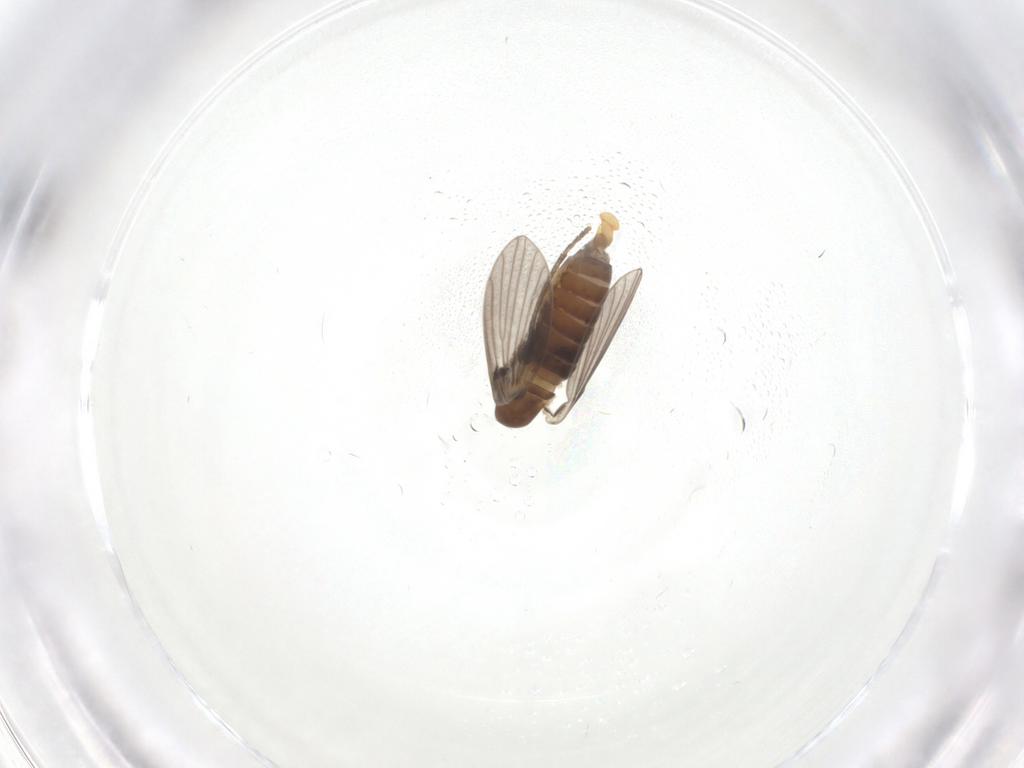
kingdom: Animalia
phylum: Arthropoda
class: Insecta
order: Diptera
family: Psychodidae
